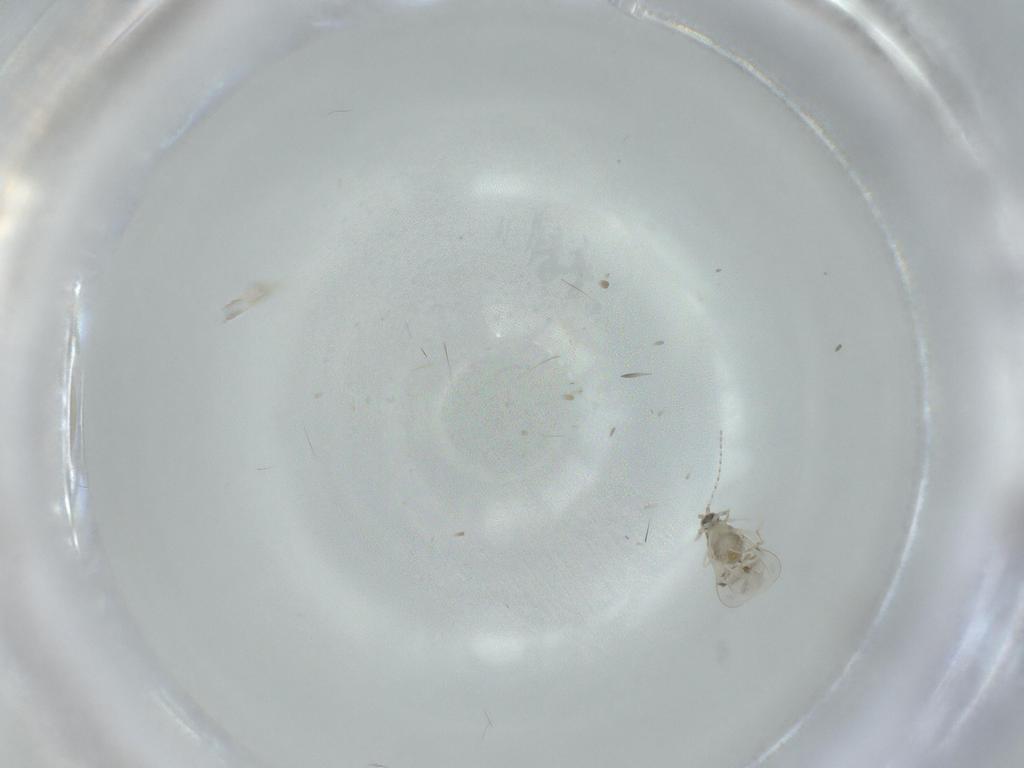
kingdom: Animalia
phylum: Arthropoda
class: Insecta
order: Diptera
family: Cecidomyiidae
